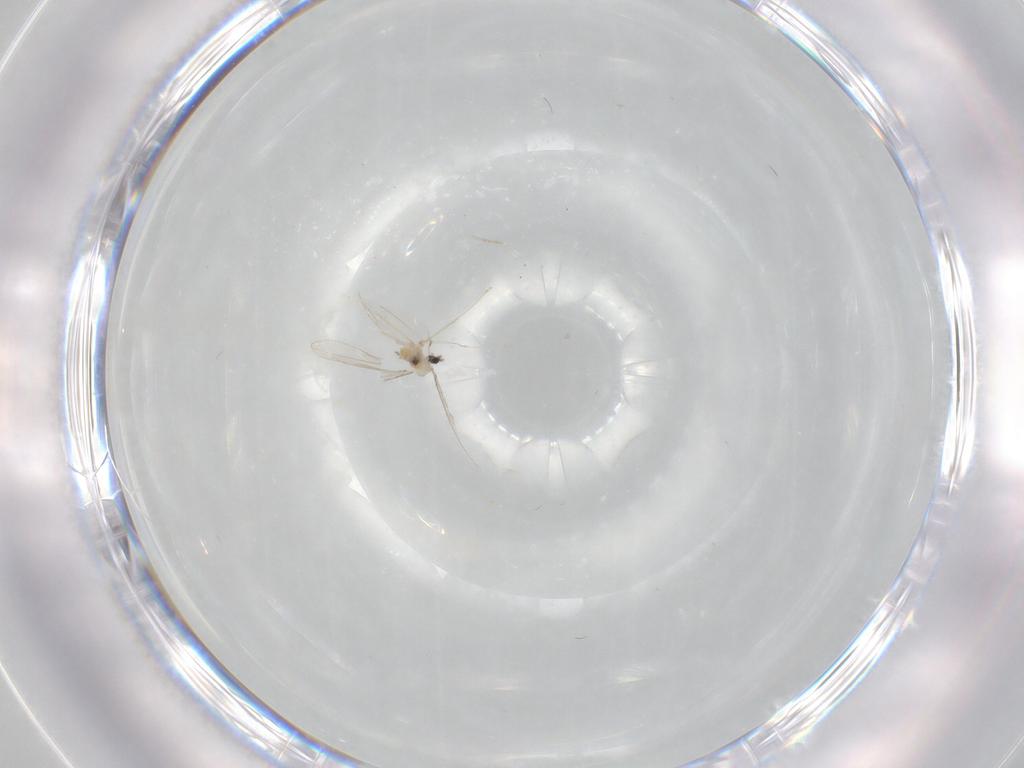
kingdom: Animalia
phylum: Arthropoda
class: Insecta
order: Diptera
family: Cecidomyiidae
